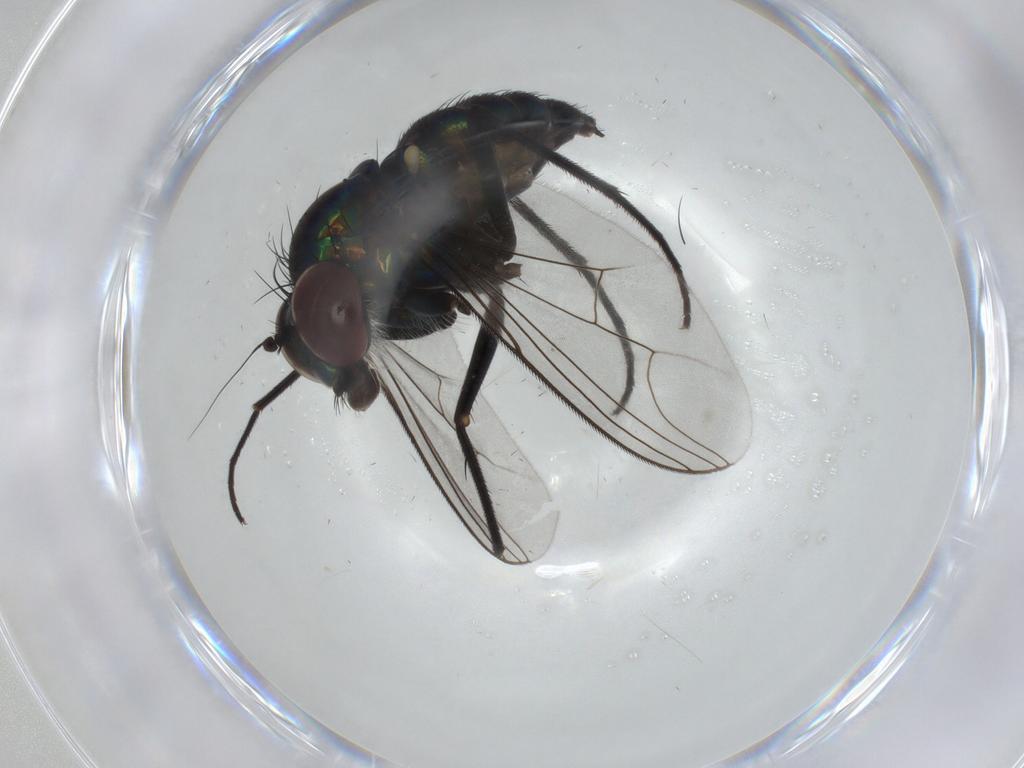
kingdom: Animalia
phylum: Arthropoda
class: Insecta
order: Diptera
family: Dolichopodidae
